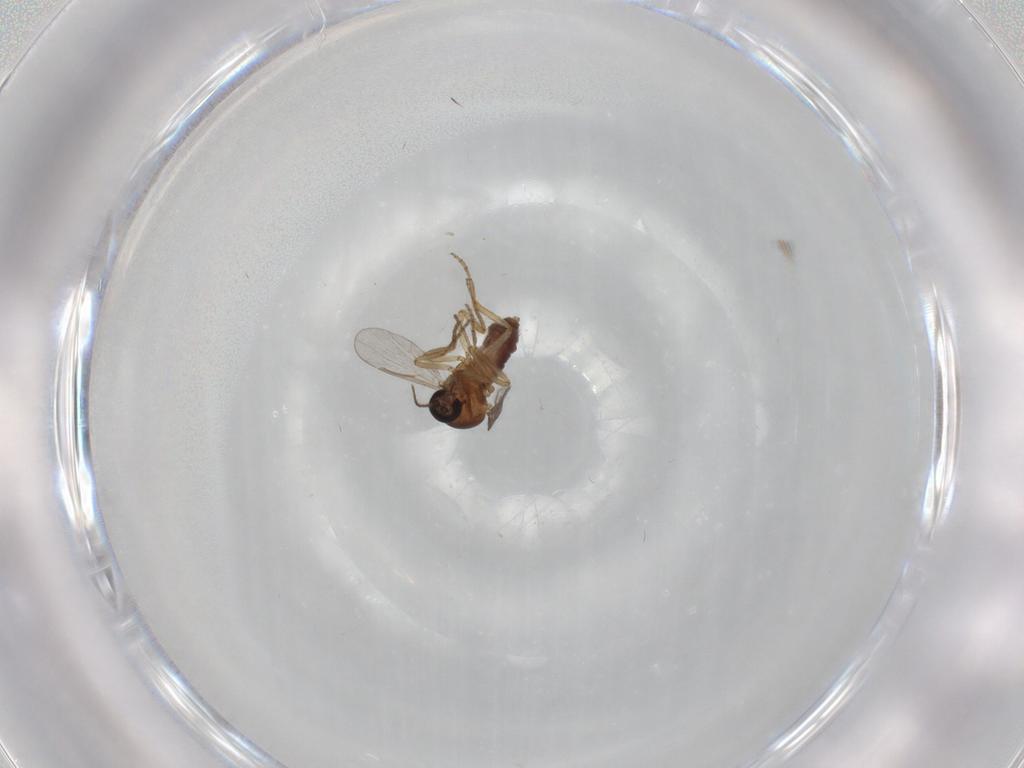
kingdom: Animalia
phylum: Arthropoda
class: Insecta
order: Diptera
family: Ceratopogonidae
